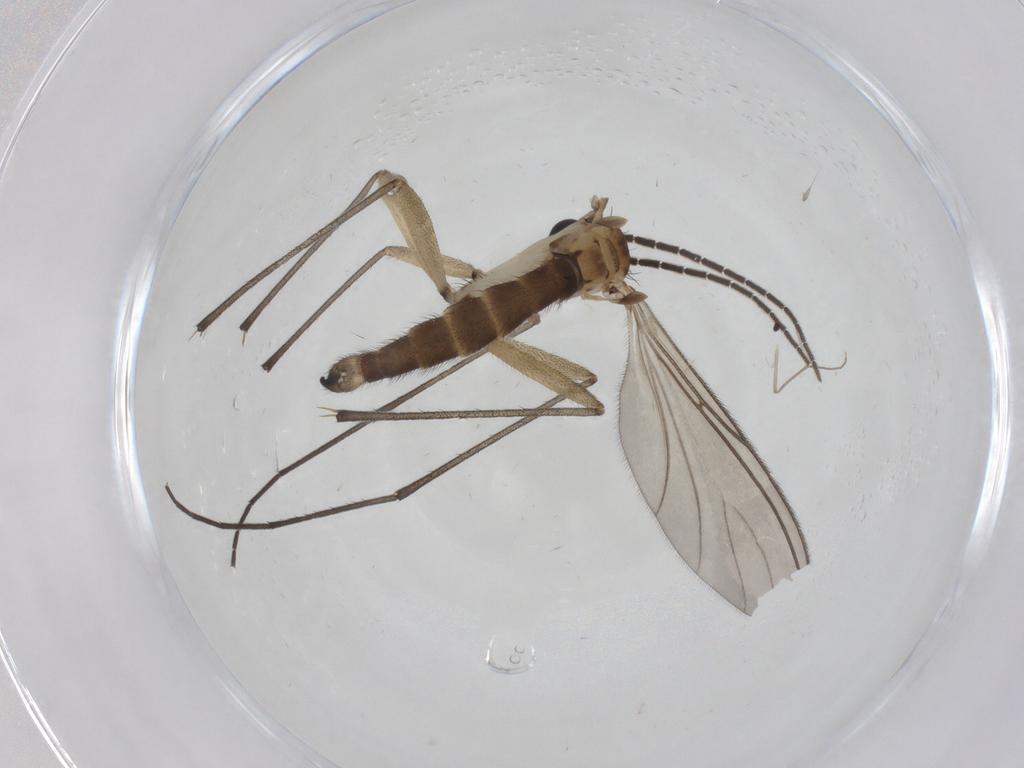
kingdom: Animalia
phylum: Arthropoda
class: Insecta
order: Diptera
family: Sciaridae
